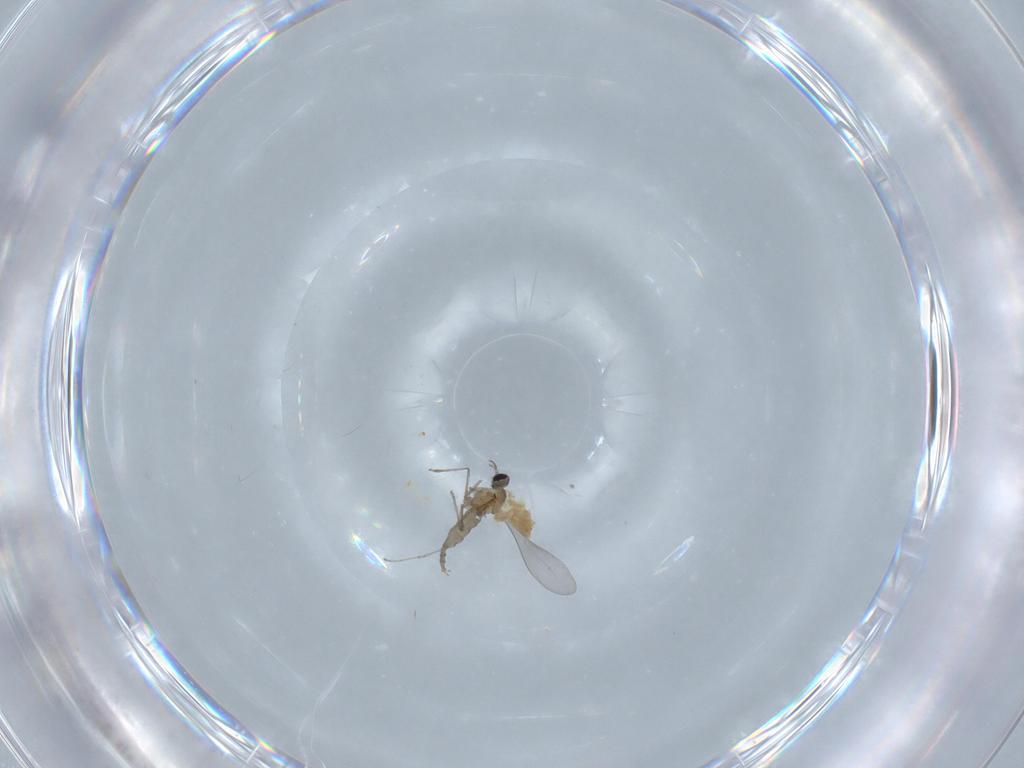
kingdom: Animalia
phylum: Arthropoda
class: Insecta
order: Diptera
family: Cecidomyiidae
